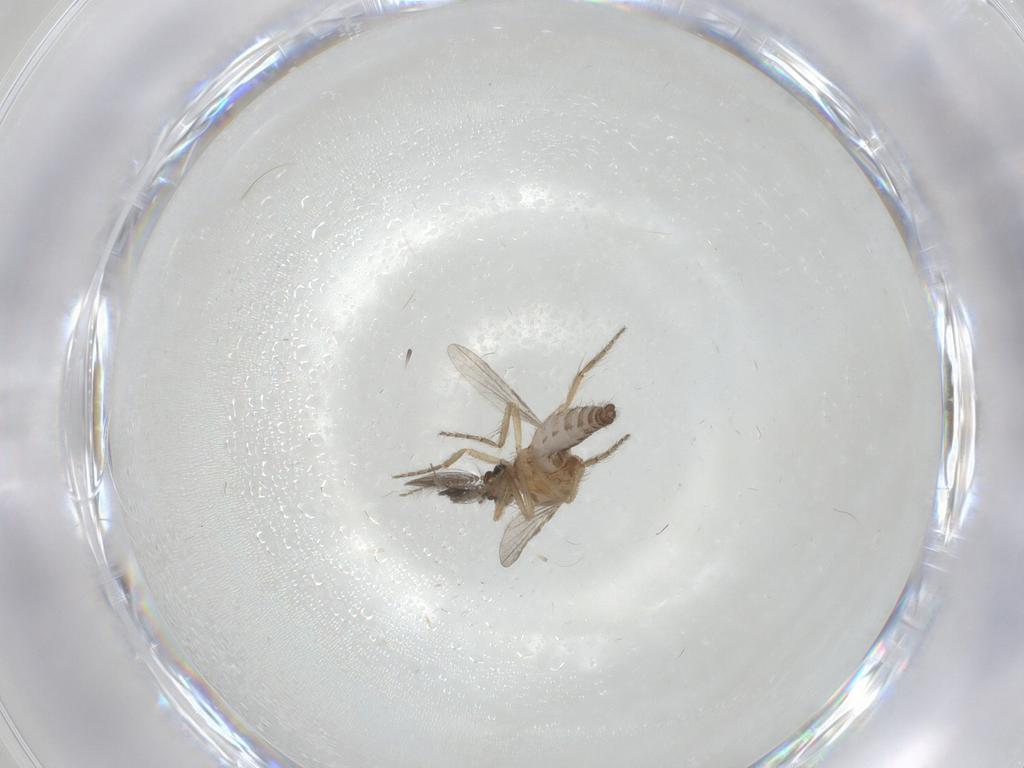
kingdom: Animalia
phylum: Arthropoda
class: Insecta
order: Diptera
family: Ceratopogonidae
